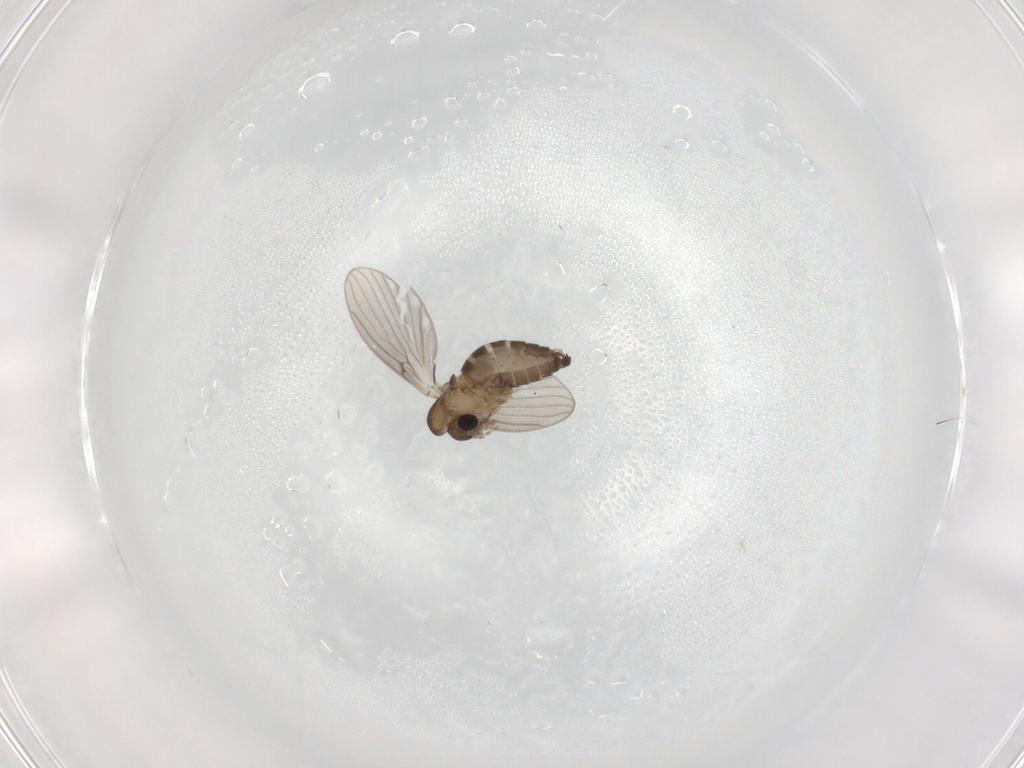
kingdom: Animalia
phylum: Arthropoda
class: Insecta
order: Diptera
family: Psychodidae
